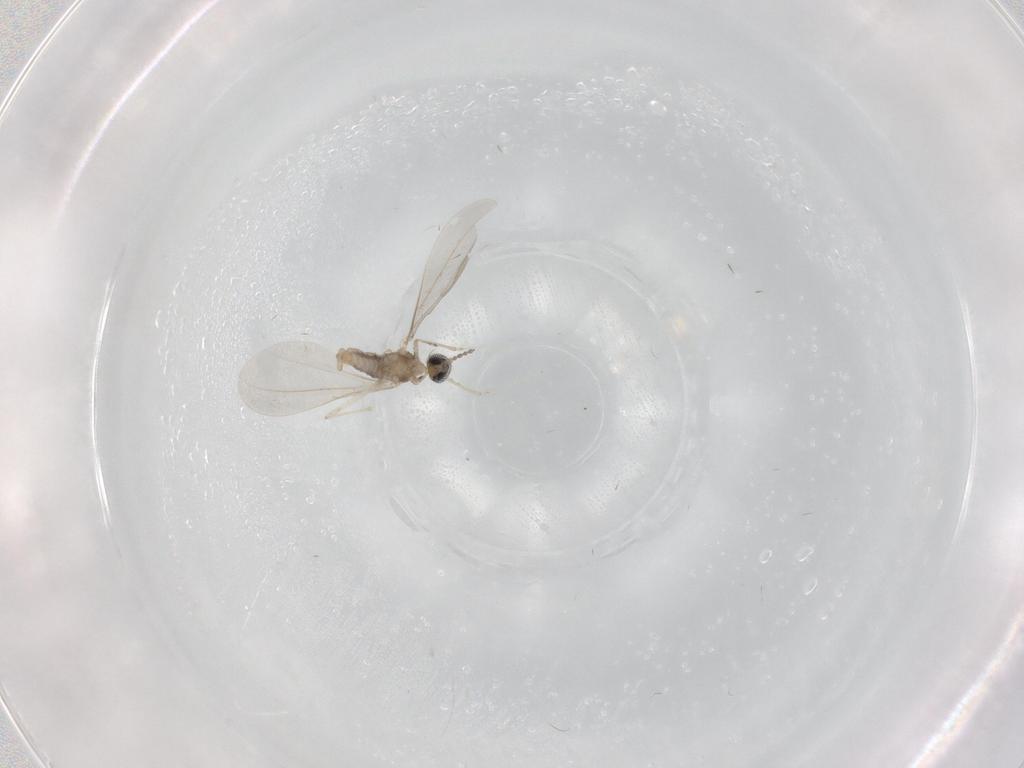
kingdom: Animalia
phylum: Arthropoda
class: Insecta
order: Diptera
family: Cecidomyiidae
